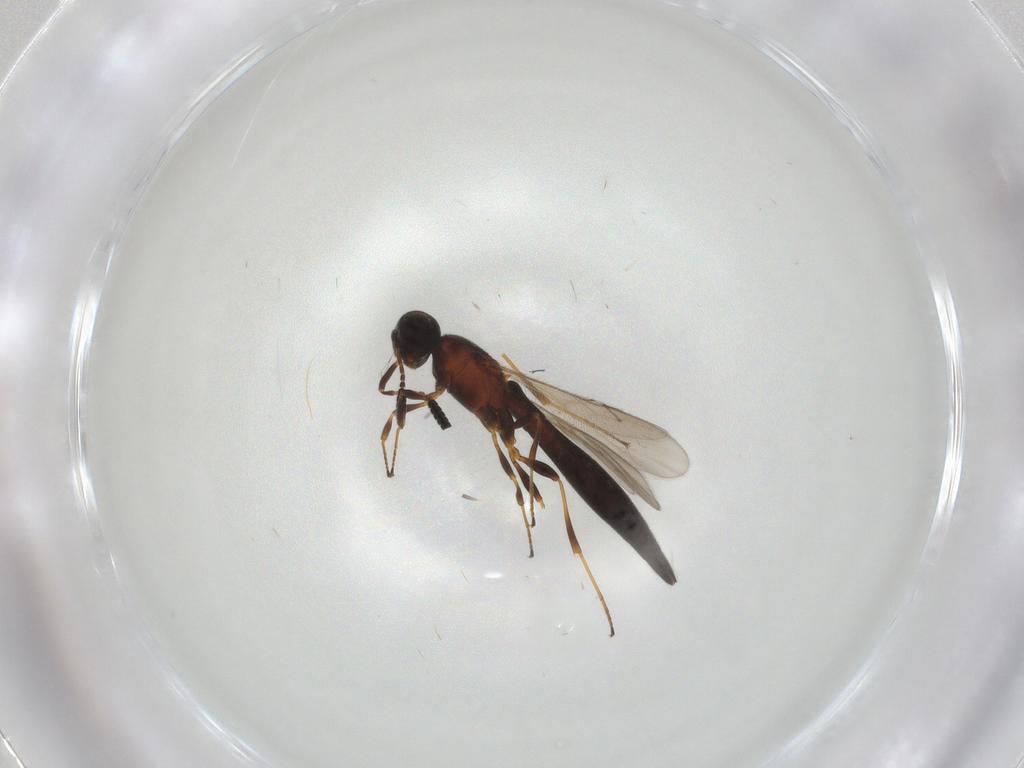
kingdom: Animalia
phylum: Arthropoda
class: Insecta
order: Hymenoptera
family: Scelionidae
